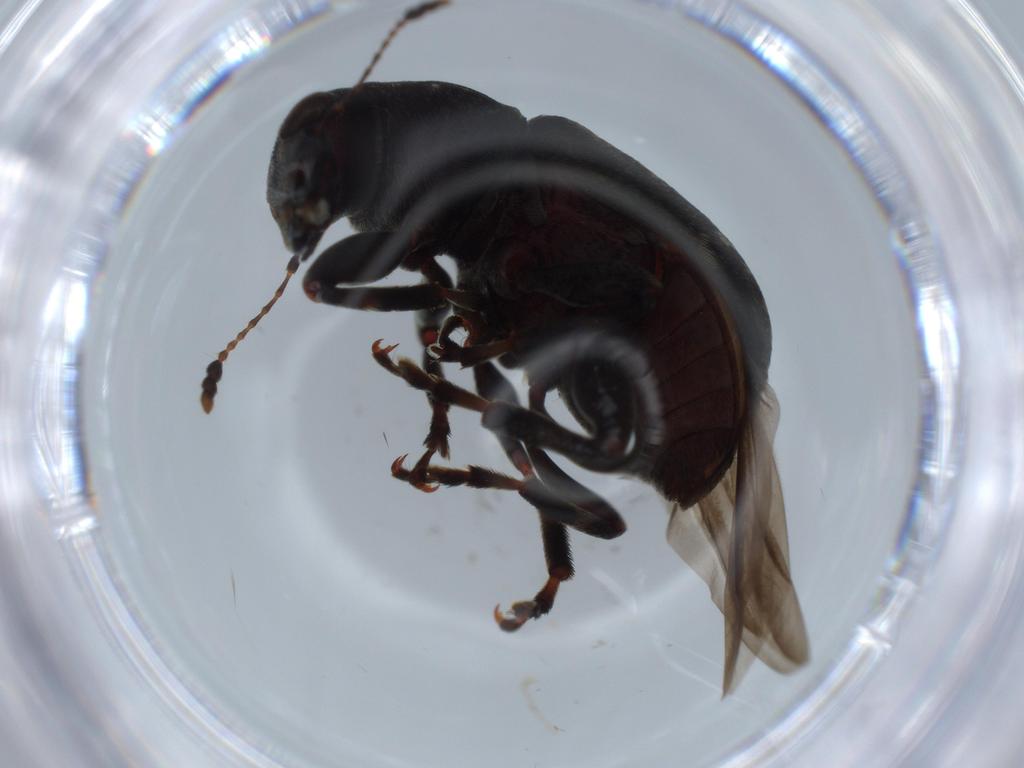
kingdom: Animalia
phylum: Arthropoda
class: Insecta
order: Coleoptera
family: Anthribidae
